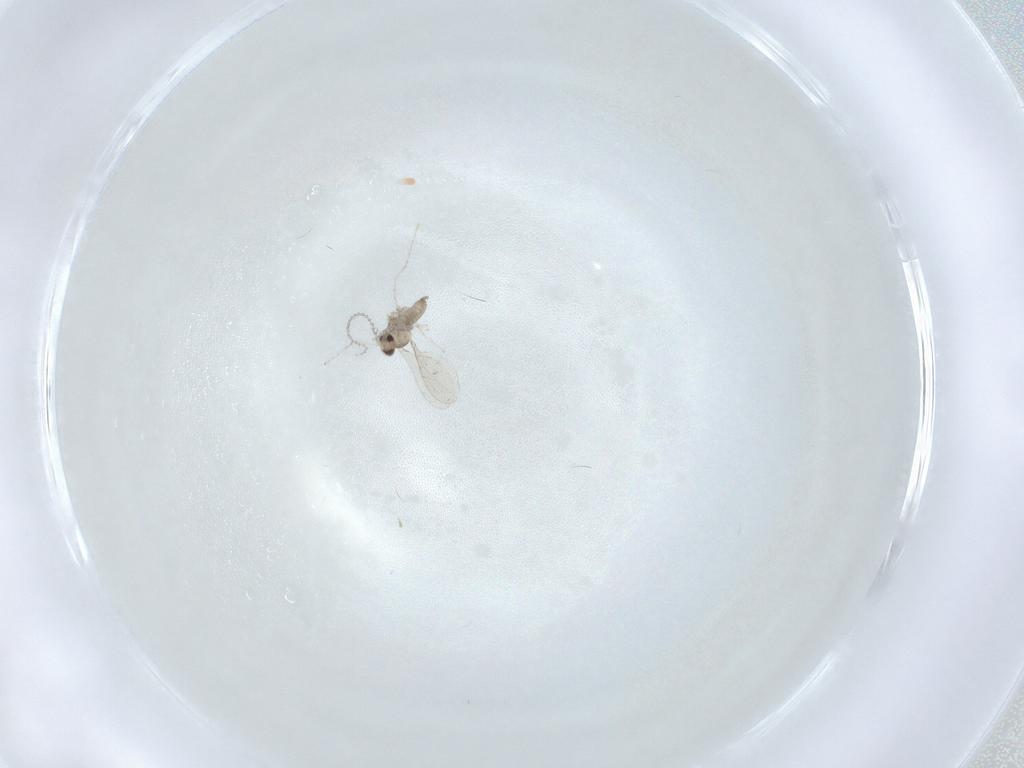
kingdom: Animalia
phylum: Arthropoda
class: Insecta
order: Diptera
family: Cecidomyiidae
